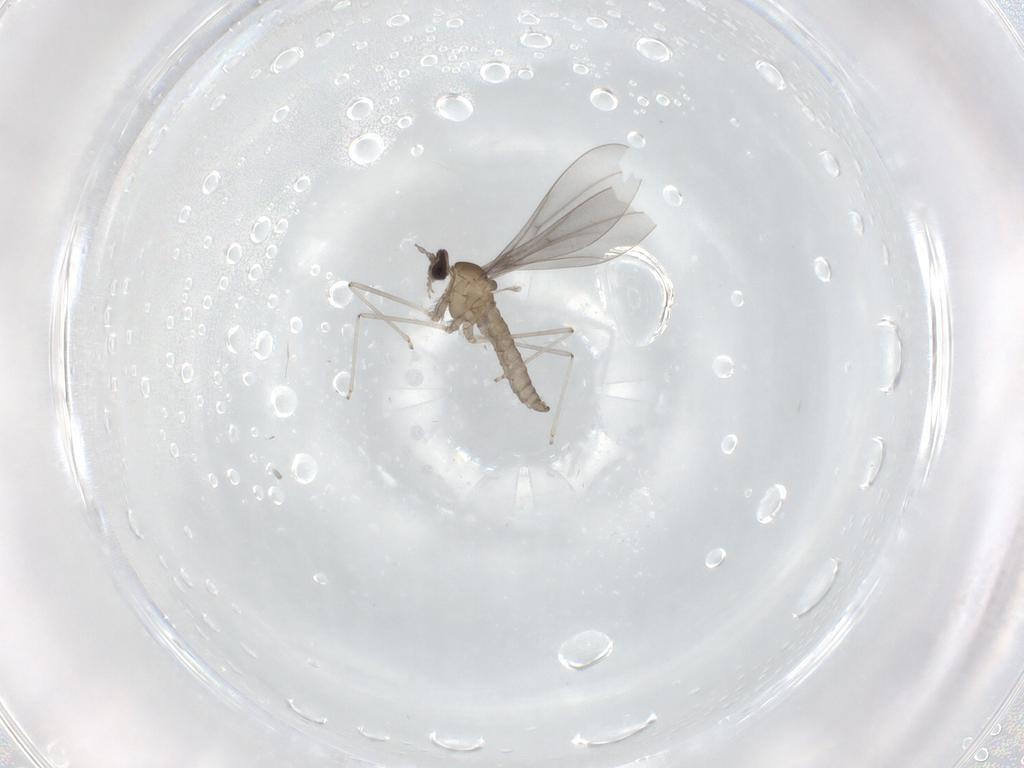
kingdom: Animalia
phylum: Arthropoda
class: Insecta
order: Diptera
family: Cecidomyiidae
